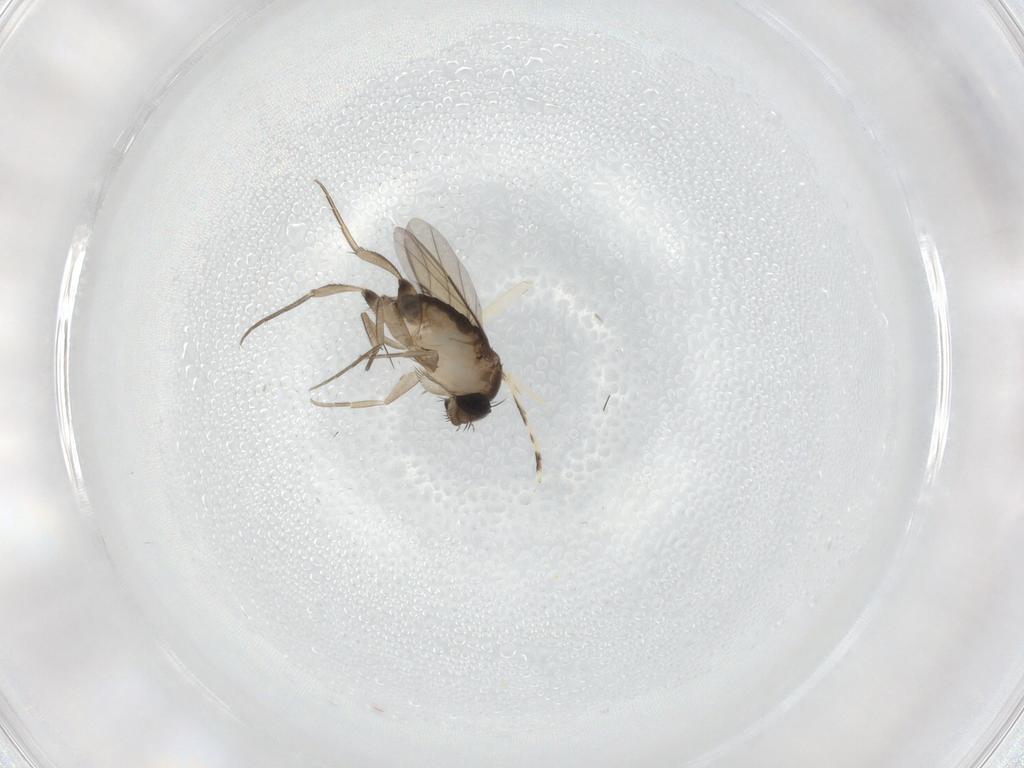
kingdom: Animalia
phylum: Arthropoda
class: Insecta
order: Diptera
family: Phoridae
